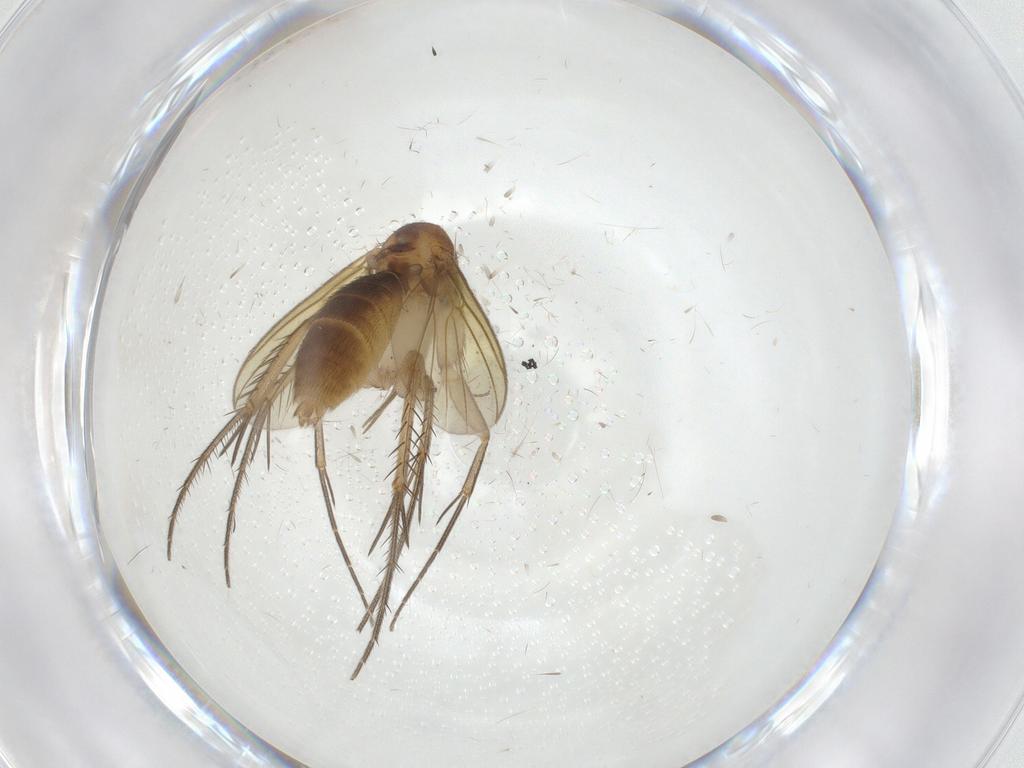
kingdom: Animalia
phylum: Arthropoda
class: Insecta
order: Diptera
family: Mycetophilidae
